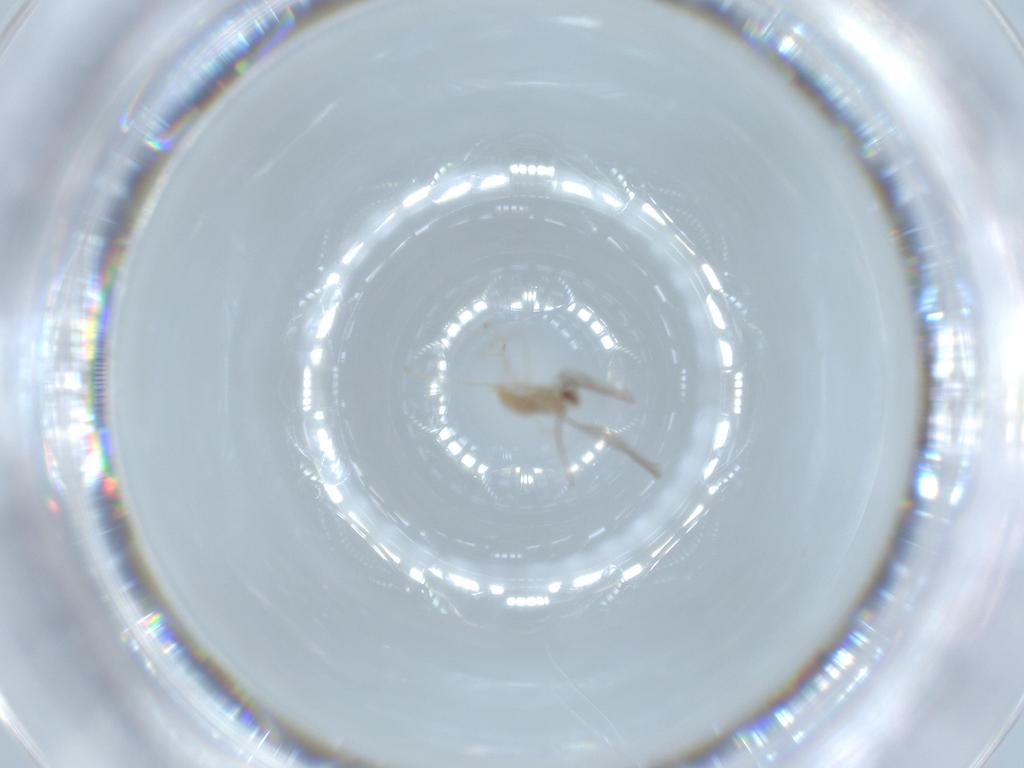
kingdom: Animalia
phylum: Arthropoda
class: Insecta
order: Diptera
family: Cecidomyiidae
